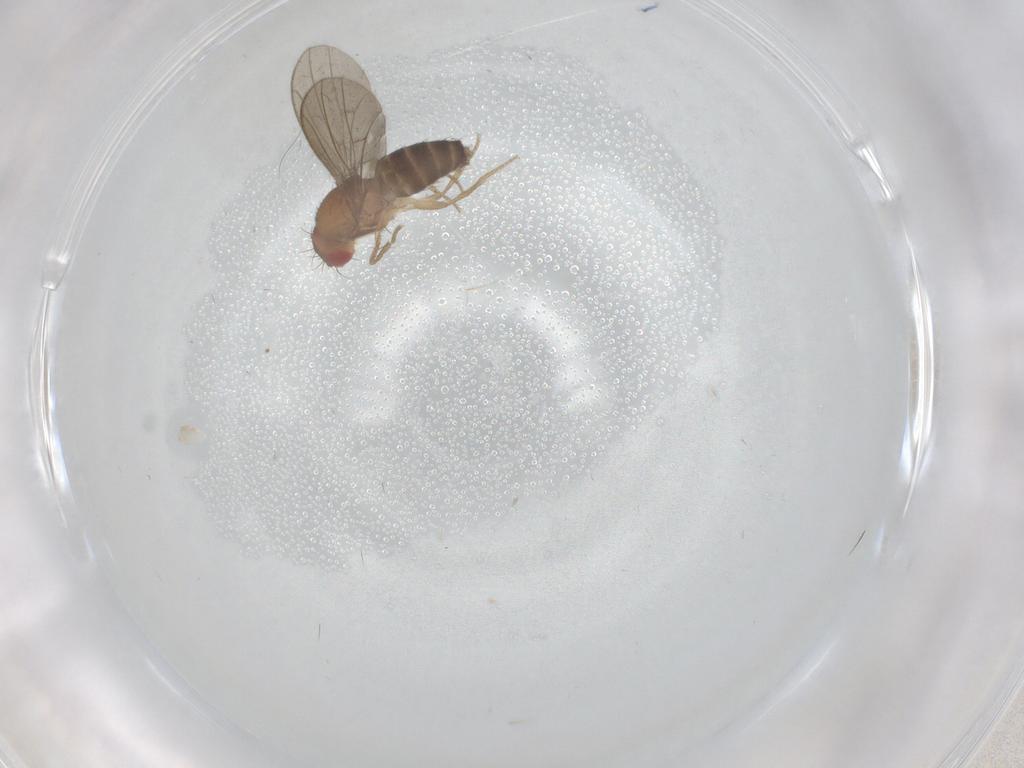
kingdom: Animalia
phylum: Arthropoda
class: Insecta
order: Diptera
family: Drosophilidae
